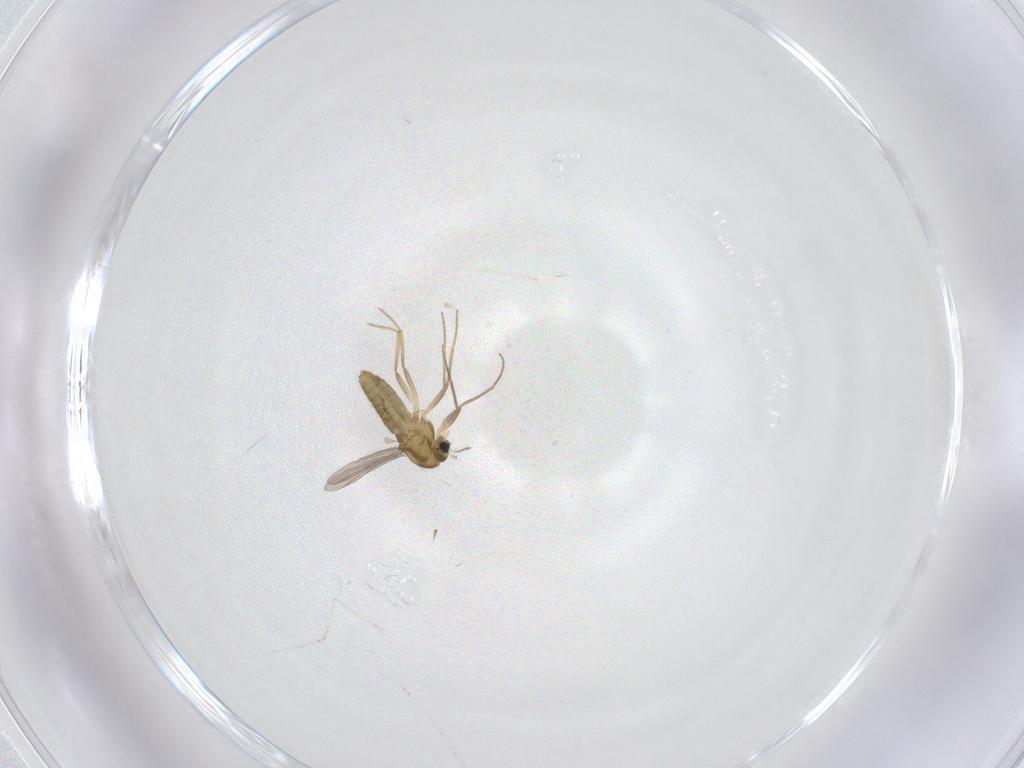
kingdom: Animalia
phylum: Arthropoda
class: Insecta
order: Diptera
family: Chironomidae
